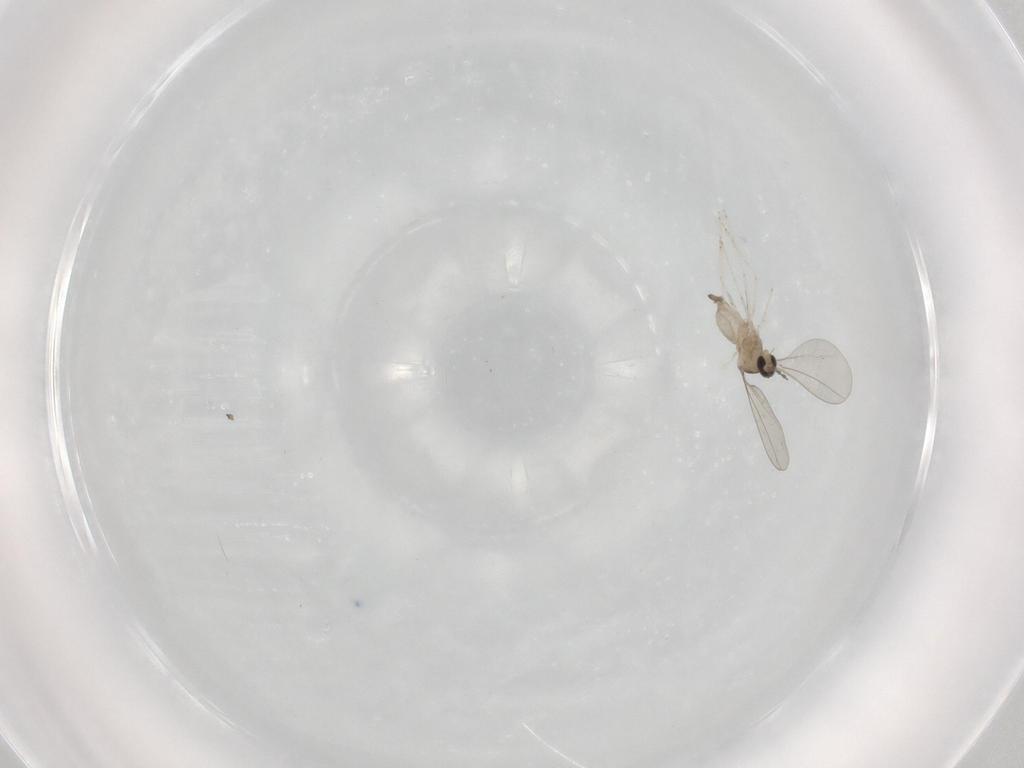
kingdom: Animalia
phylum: Arthropoda
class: Insecta
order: Diptera
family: Cecidomyiidae
